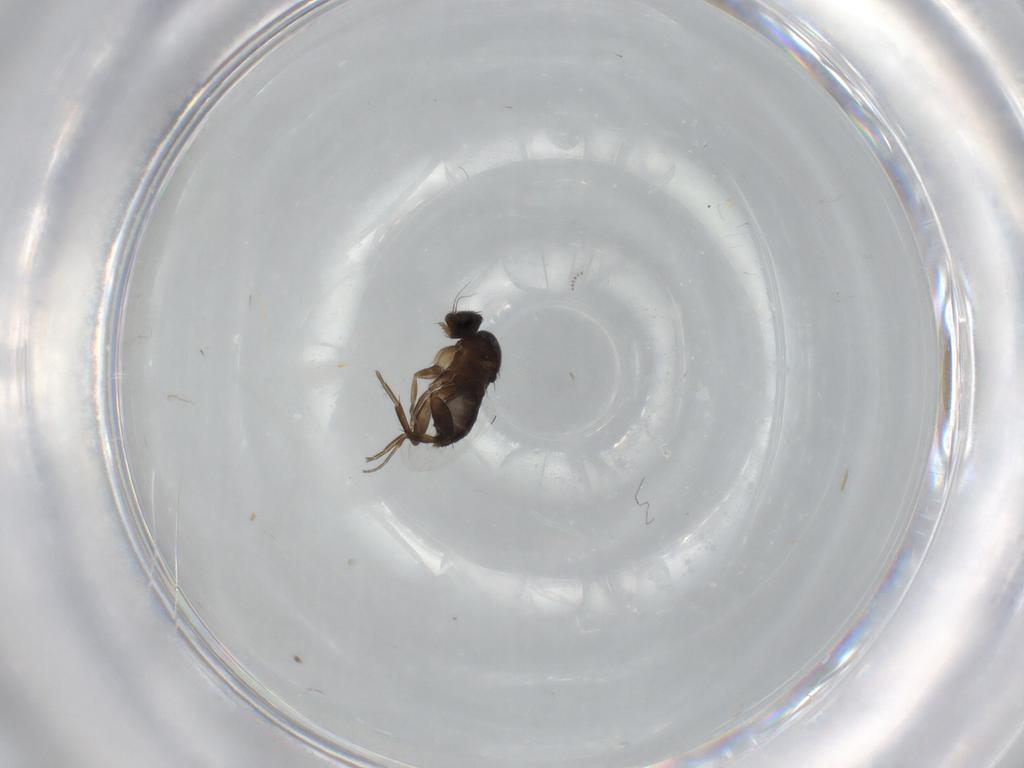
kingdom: Animalia
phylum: Arthropoda
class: Insecta
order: Diptera
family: Phoridae
